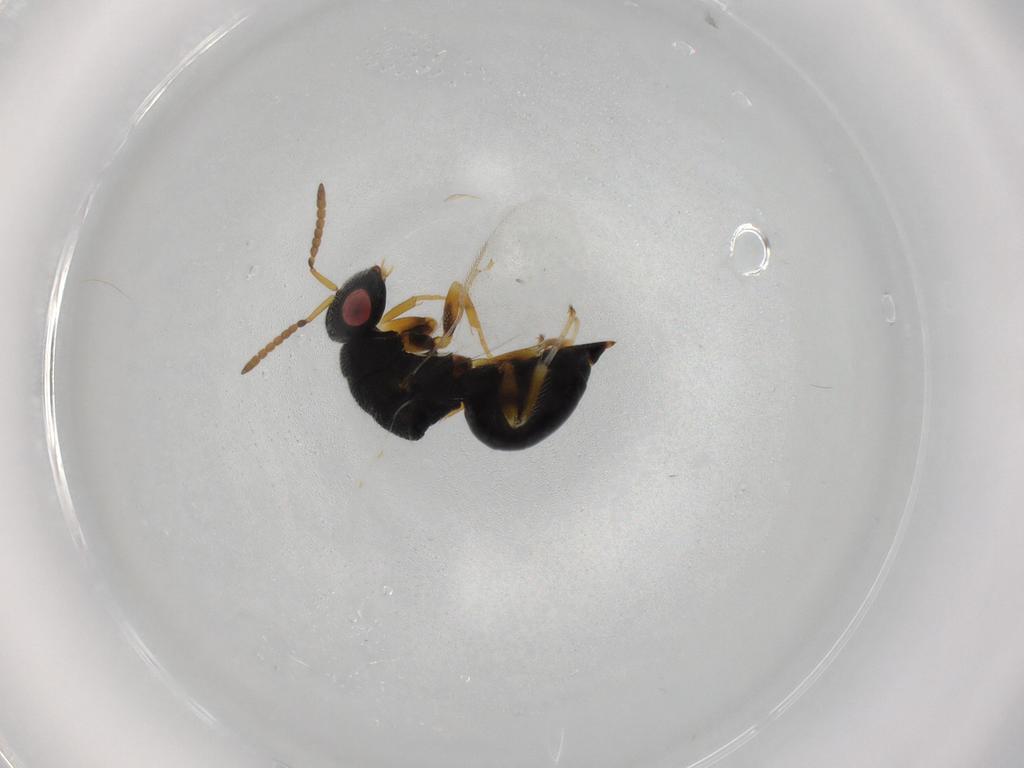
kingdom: Animalia
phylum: Arthropoda
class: Insecta
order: Hymenoptera
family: Eurytomidae
